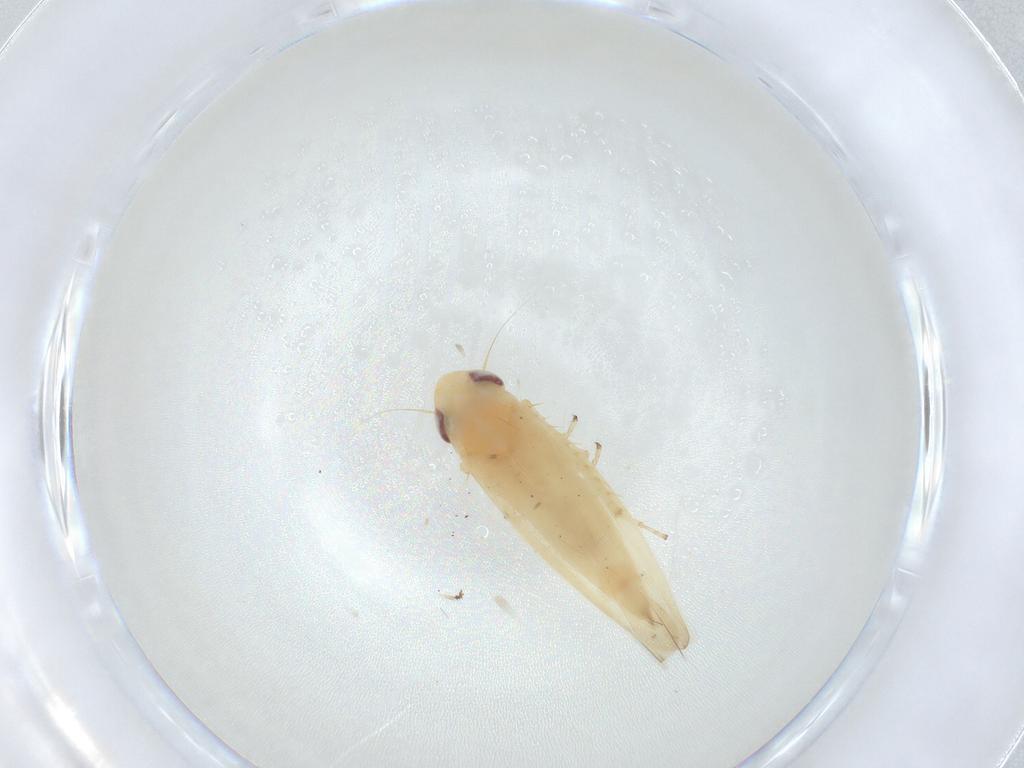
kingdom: Animalia
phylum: Arthropoda
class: Insecta
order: Hemiptera
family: Cicadellidae
